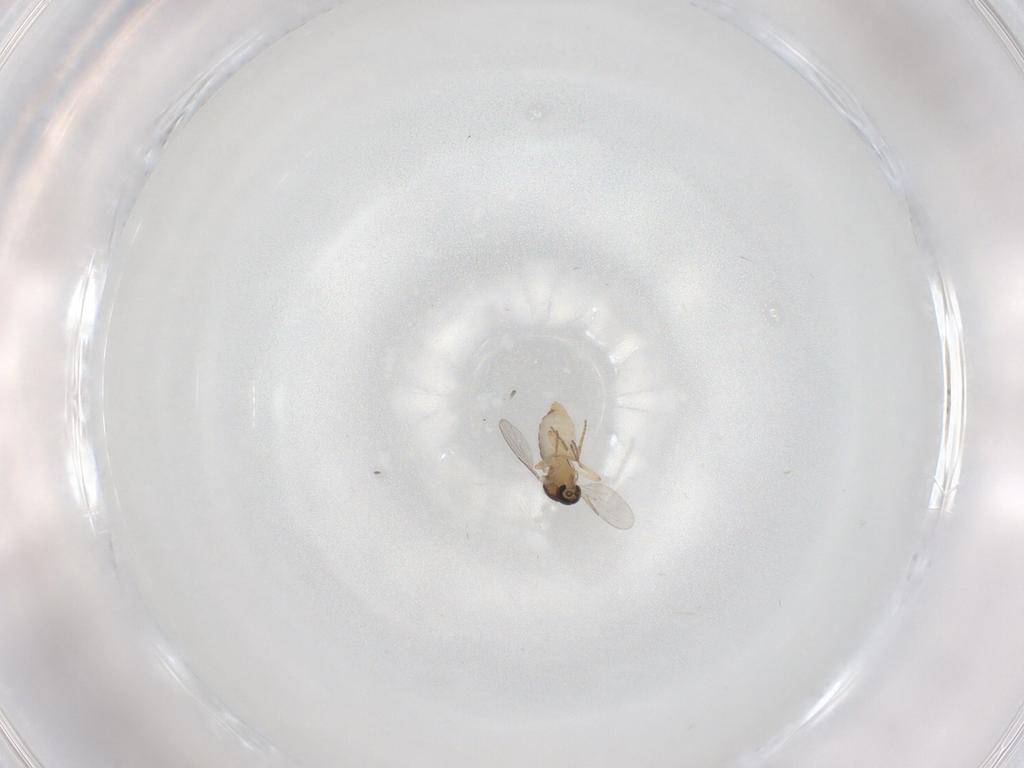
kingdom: Animalia
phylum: Arthropoda
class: Insecta
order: Diptera
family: Ceratopogonidae
